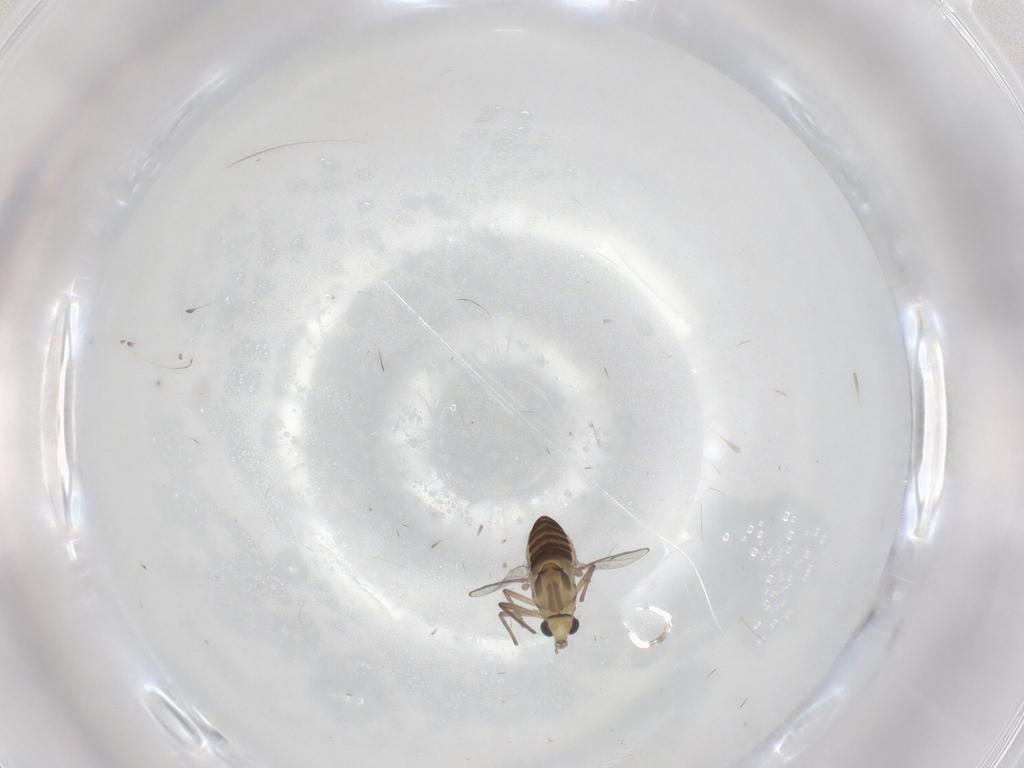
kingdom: Animalia
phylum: Arthropoda
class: Insecta
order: Diptera
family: Chironomidae
